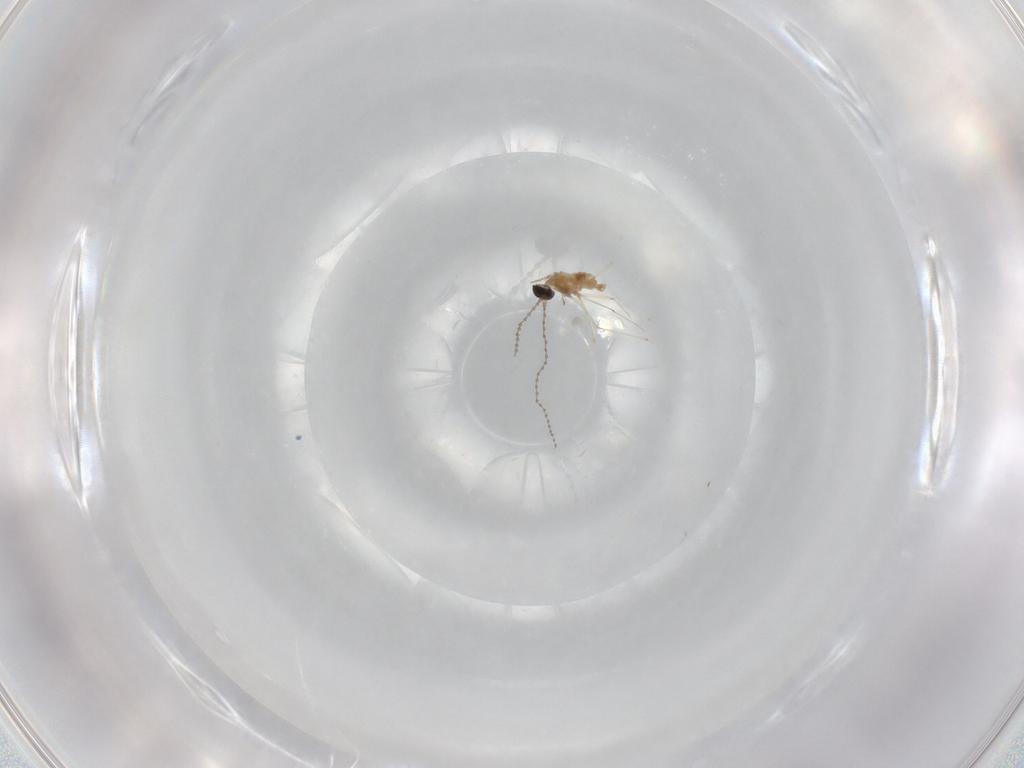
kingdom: Animalia
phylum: Arthropoda
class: Insecta
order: Diptera
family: Cecidomyiidae
